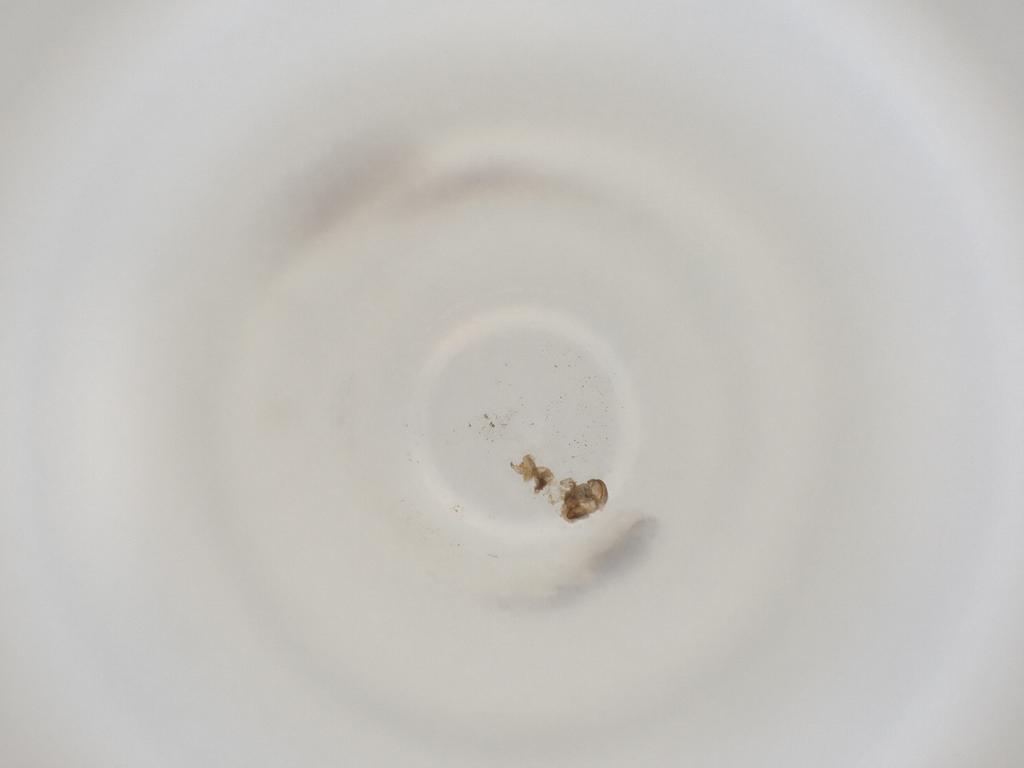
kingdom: Animalia
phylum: Arthropoda
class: Insecta
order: Diptera
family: Cecidomyiidae
